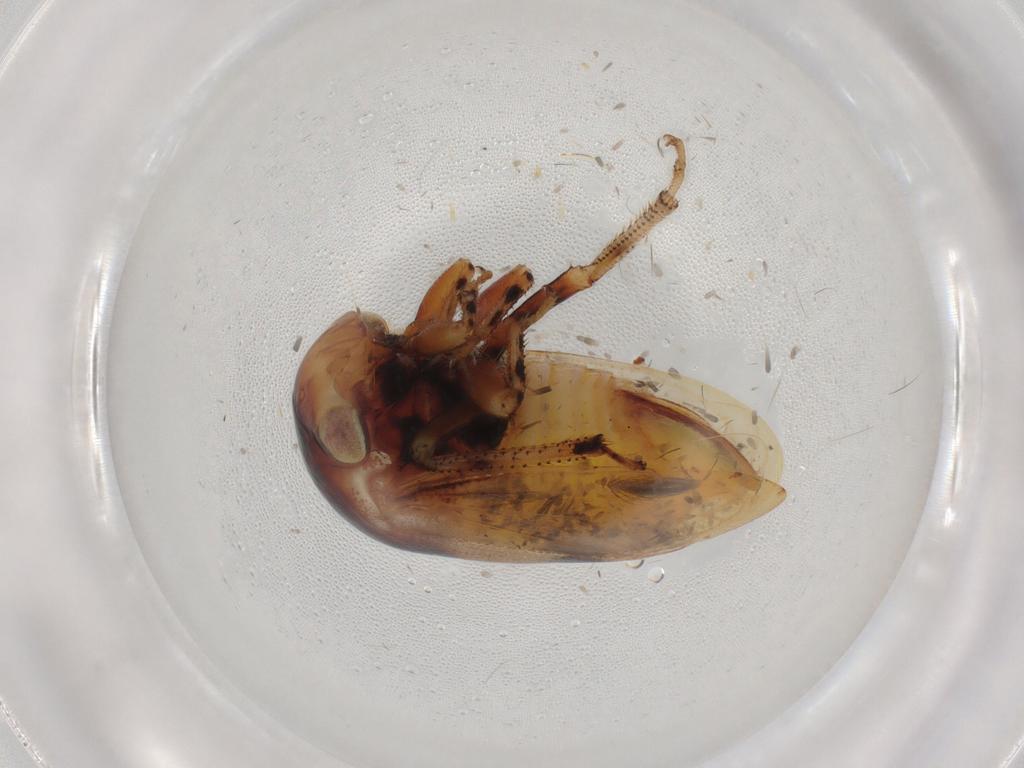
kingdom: Animalia
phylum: Arthropoda
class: Insecta
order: Hemiptera
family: Membracidae
